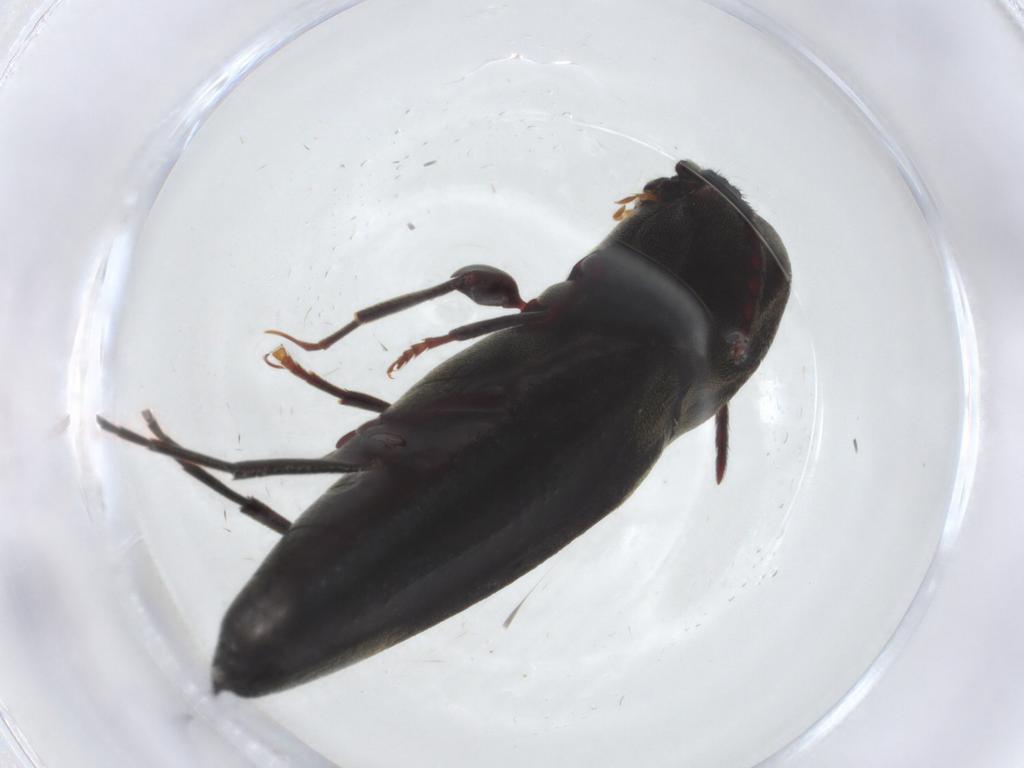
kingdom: Animalia
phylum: Arthropoda
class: Insecta
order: Coleoptera
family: Eucnemidae
